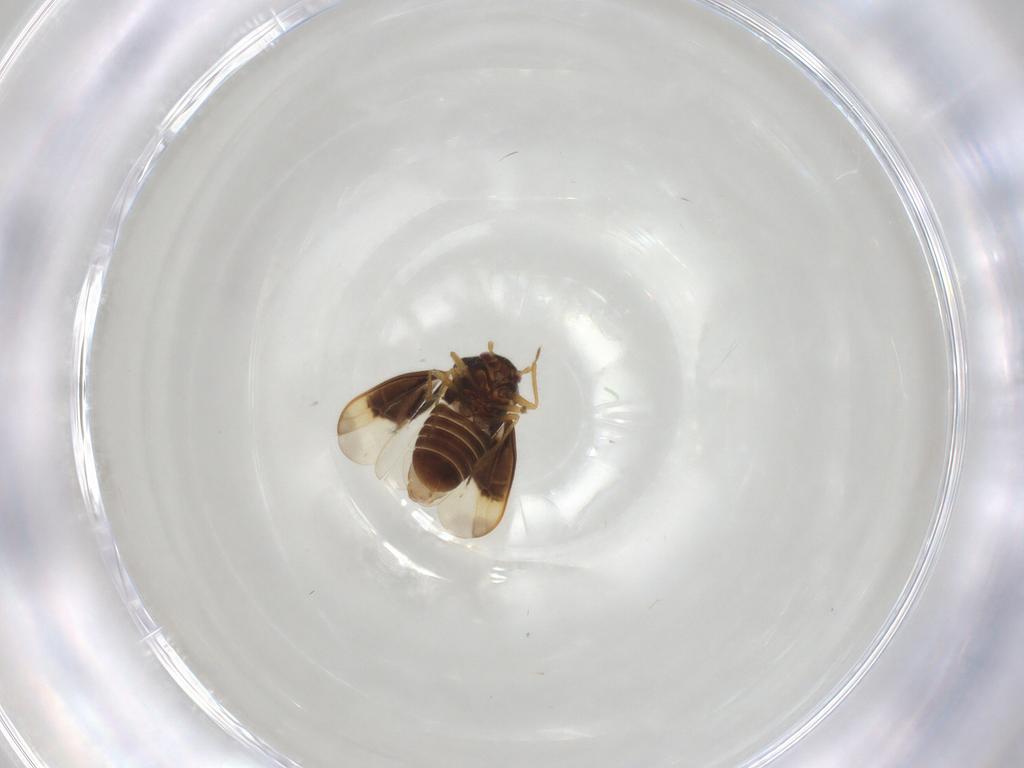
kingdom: Animalia
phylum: Arthropoda
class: Insecta
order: Hemiptera
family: Schizopteridae
